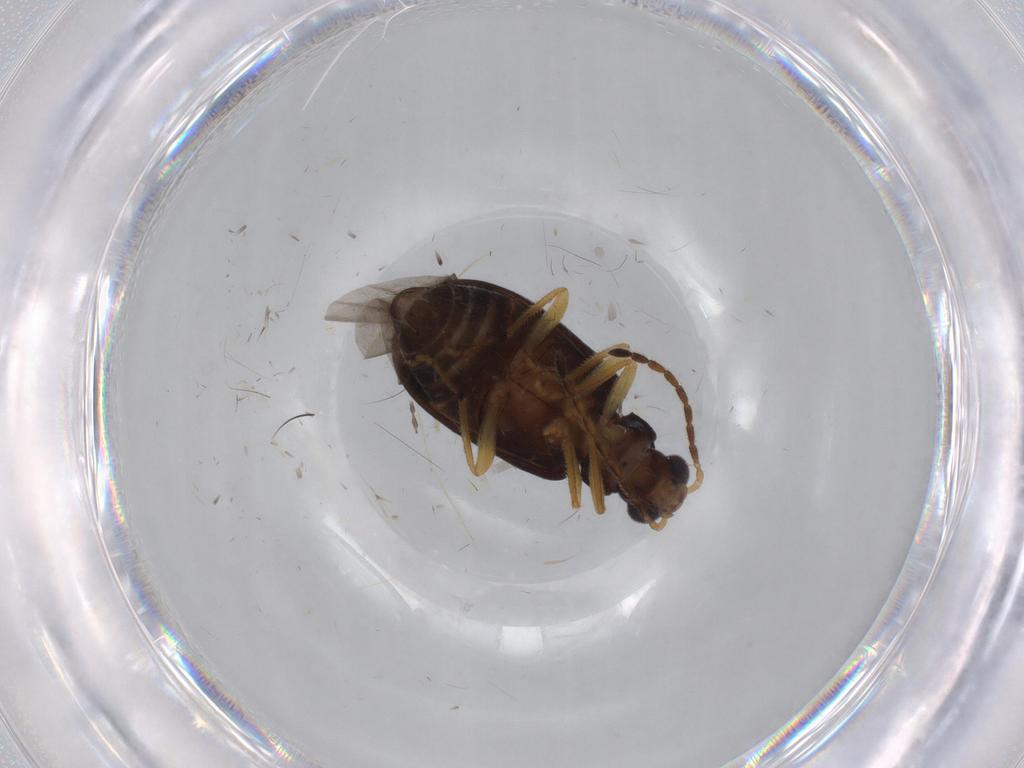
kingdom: Animalia
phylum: Arthropoda
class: Insecta
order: Coleoptera
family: Chrysomelidae
